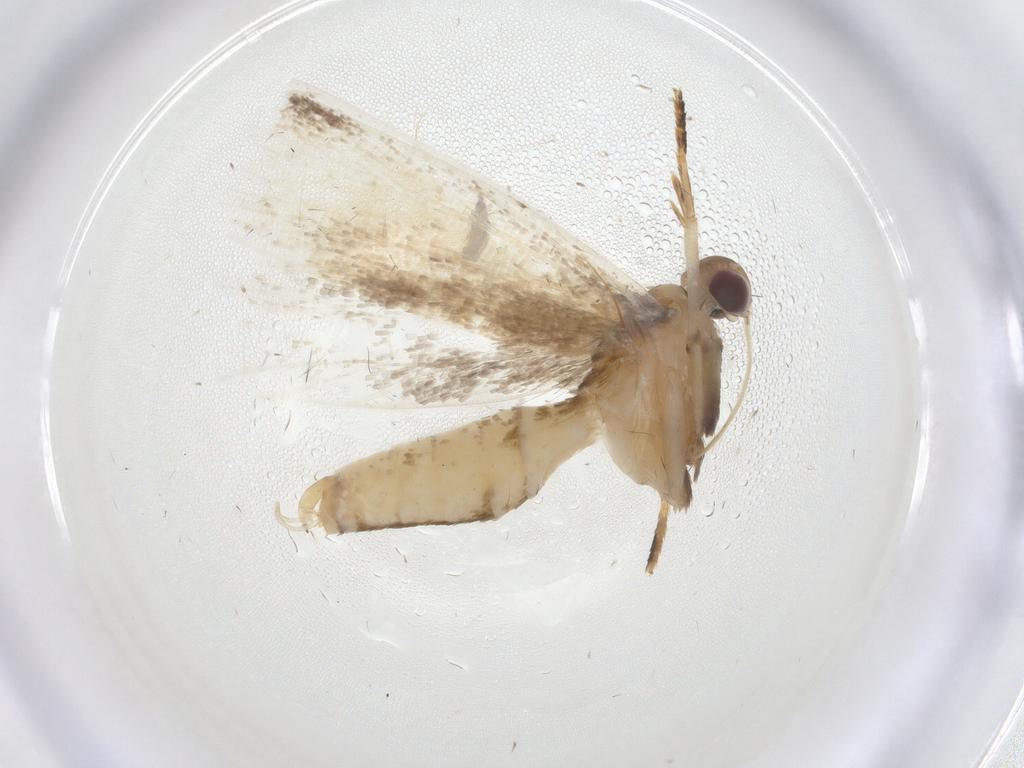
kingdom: Animalia
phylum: Arthropoda
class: Insecta
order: Lepidoptera
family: Crambidae
